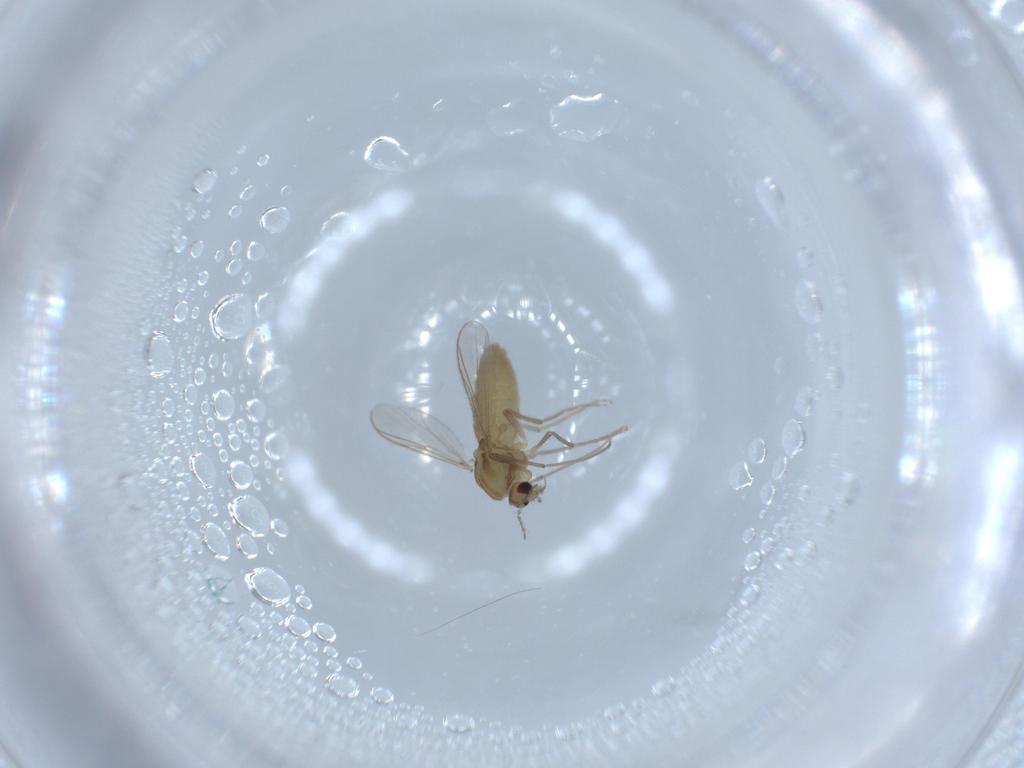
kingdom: Animalia
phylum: Arthropoda
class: Insecta
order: Diptera
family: Chironomidae
